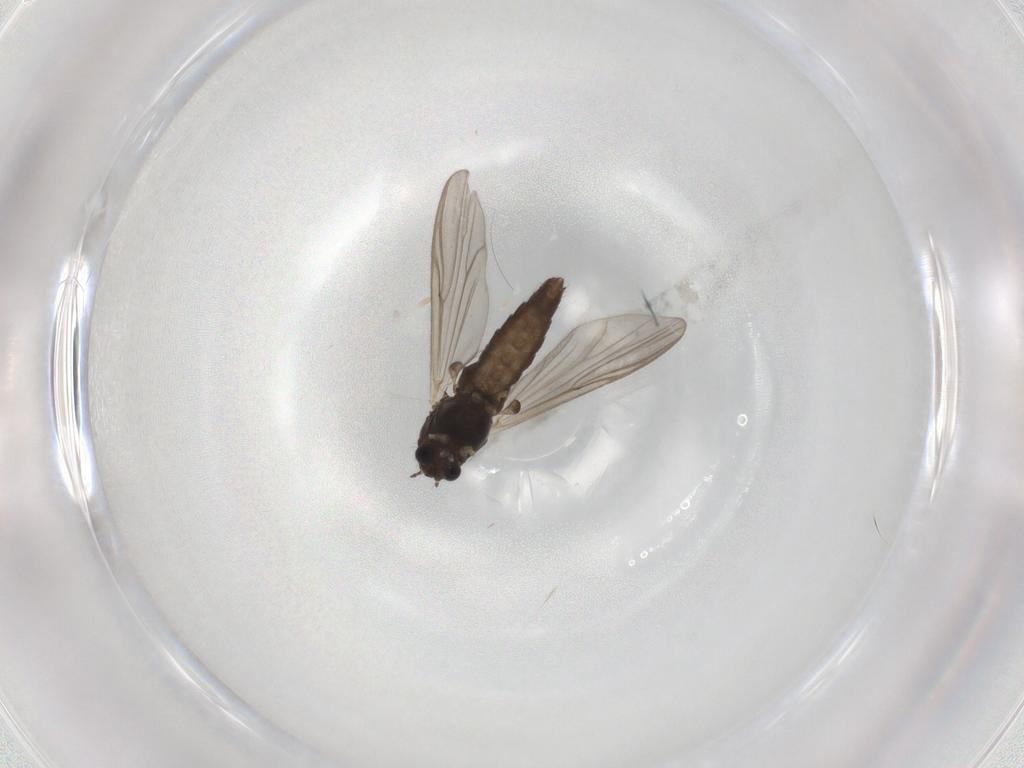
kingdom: Animalia
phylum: Arthropoda
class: Insecta
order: Diptera
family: Chironomidae
